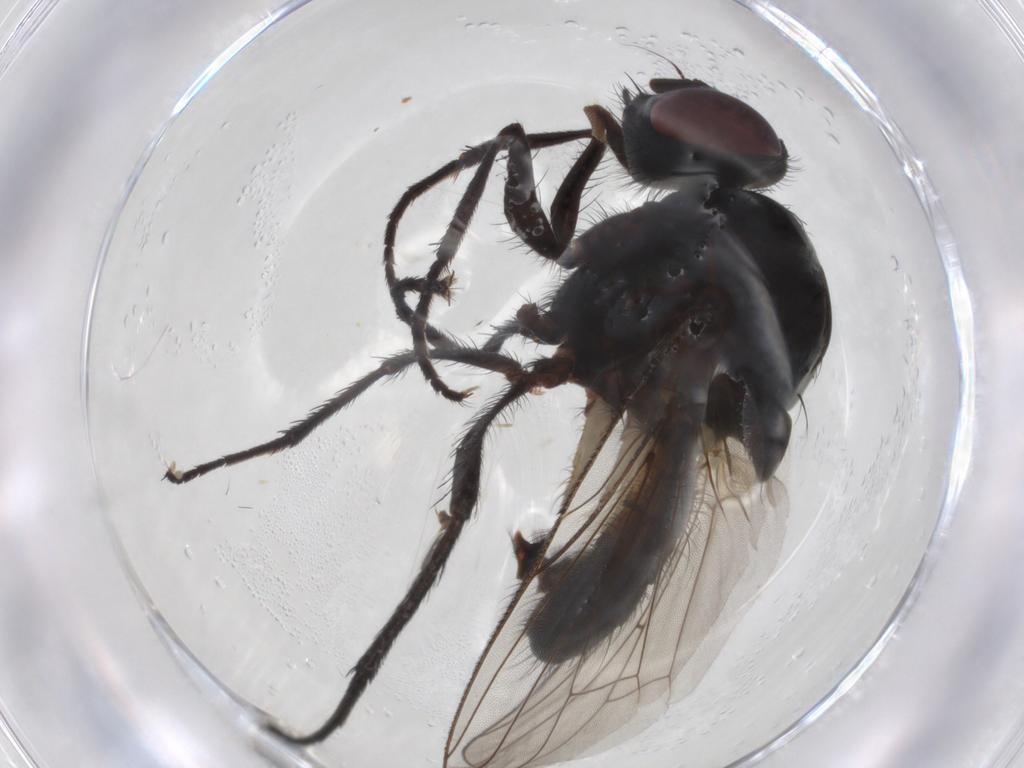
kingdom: Animalia
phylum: Arthropoda
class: Insecta
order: Diptera
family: Anthomyiidae
